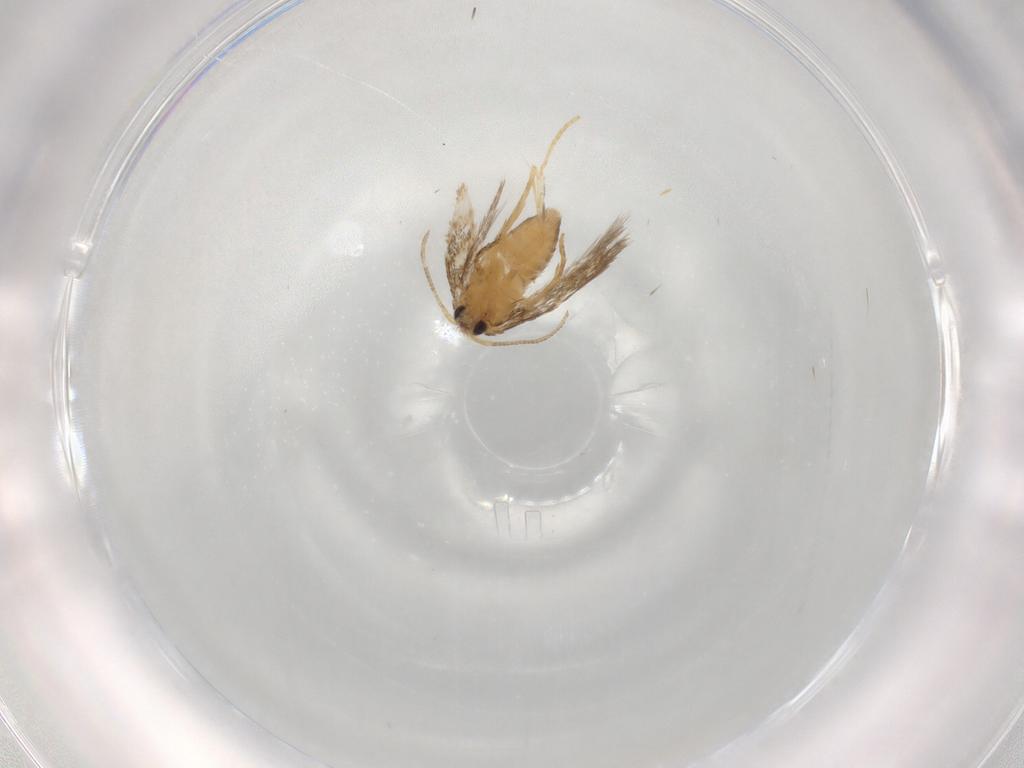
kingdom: Animalia
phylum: Arthropoda
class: Insecta
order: Lepidoptera
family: Nepticulidae
